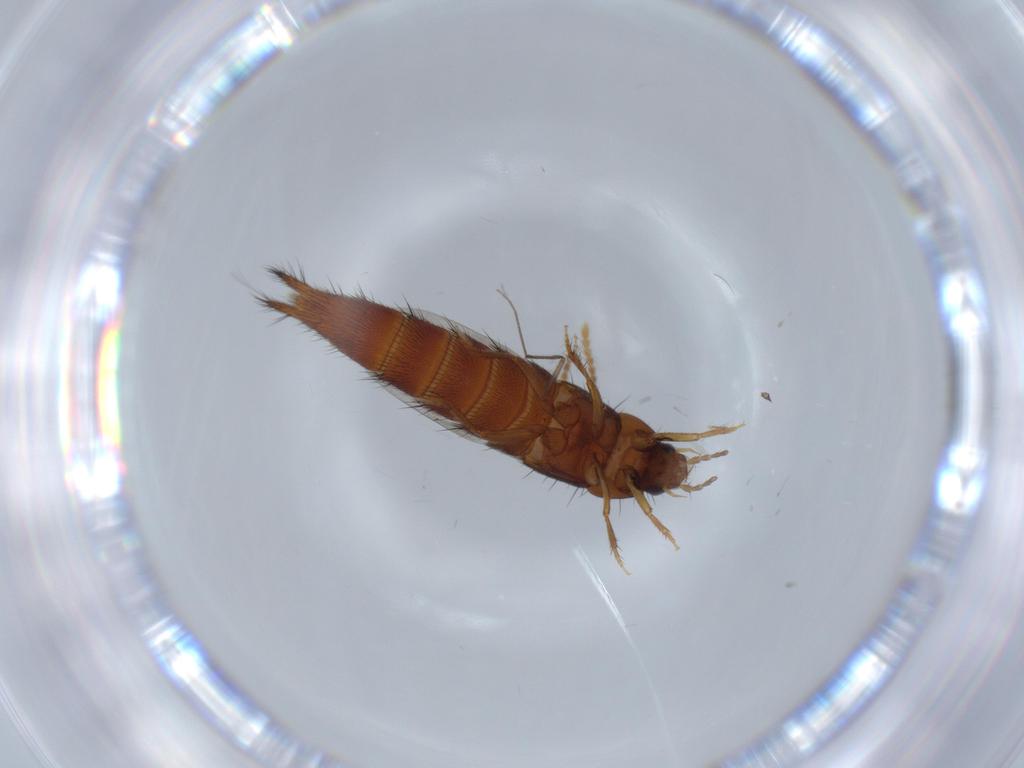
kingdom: Animalia
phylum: Arthropoda
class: Insecta
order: Coleoptera
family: Staphylinidae
